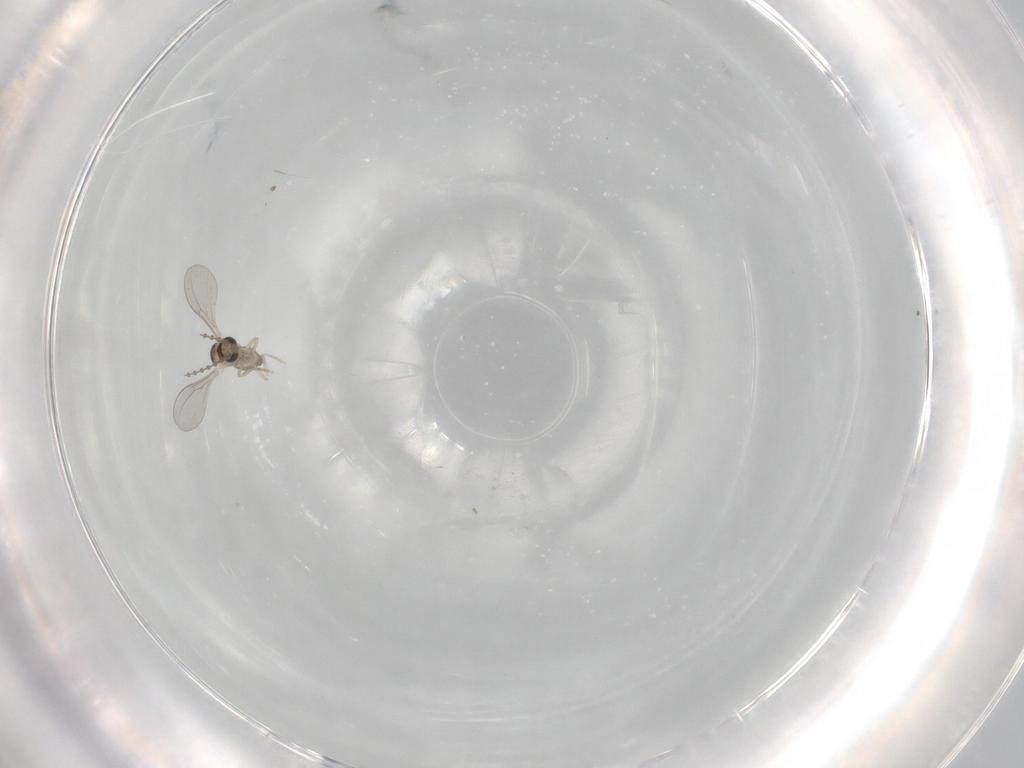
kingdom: Animalia
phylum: Arthropoda
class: Insecta
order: Diptera
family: Cecidomyiidae
